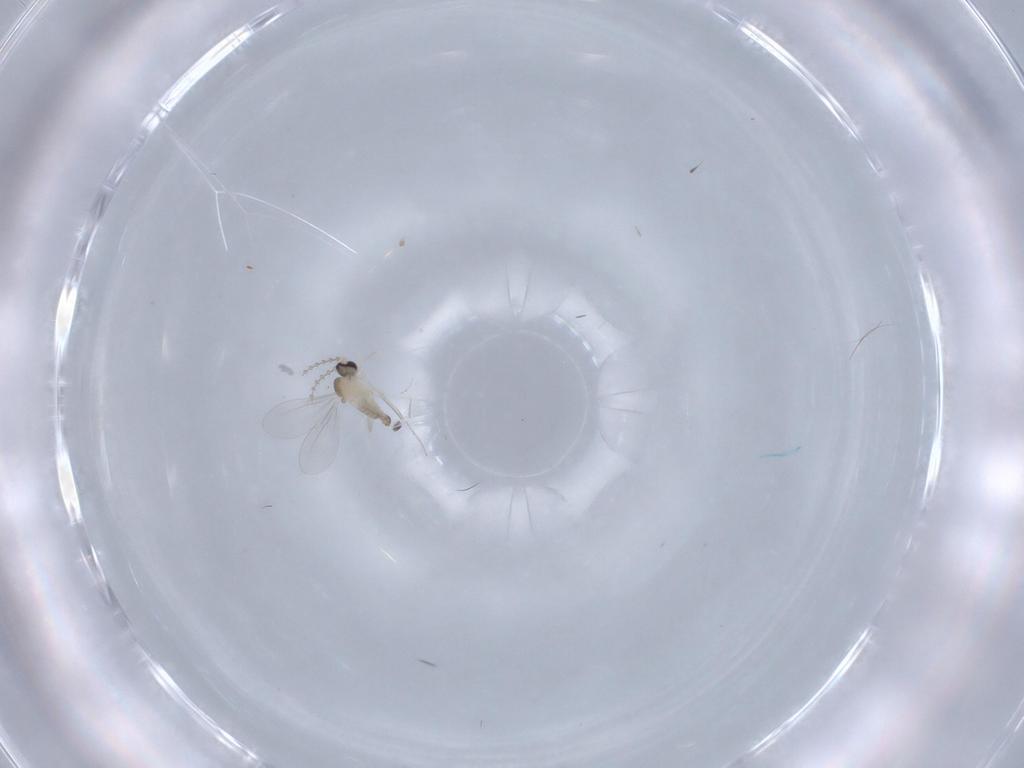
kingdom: Animalia
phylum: Arthropoda
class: Insecta
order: Diptera
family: Cecidomyiidae
